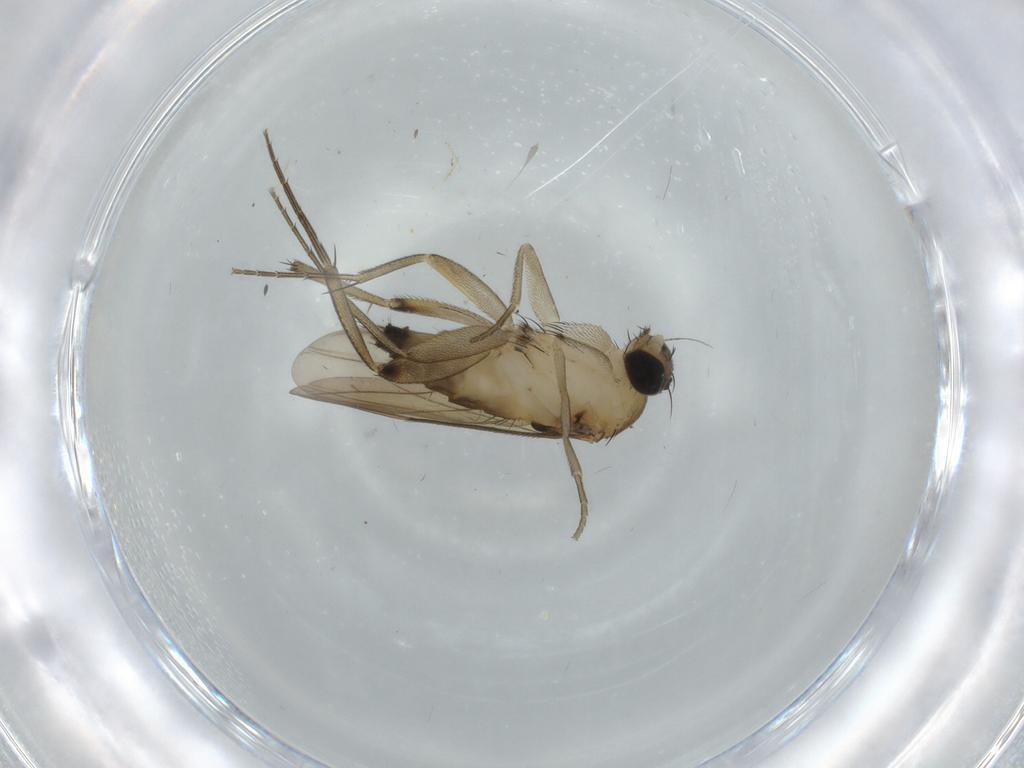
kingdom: Animalia
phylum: Arthropoda
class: Insecta
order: Diptera
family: Phoridae
